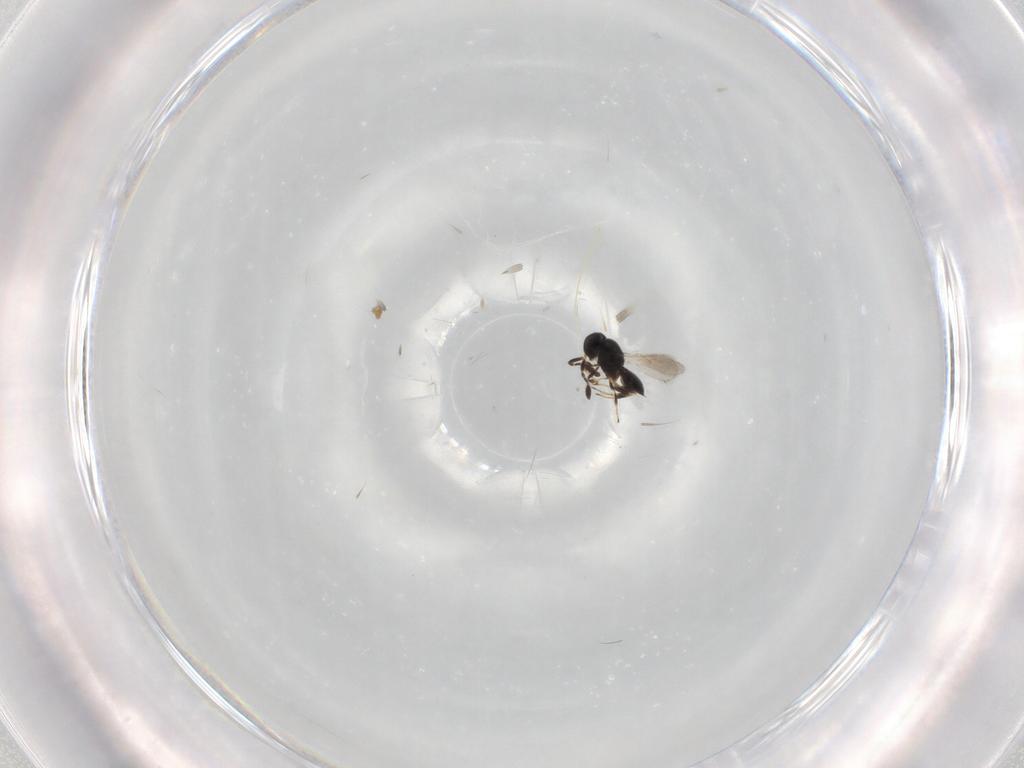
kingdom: Animalia
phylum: Arthropoda
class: Insecta
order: Hymenoptera
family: Scelionidae
